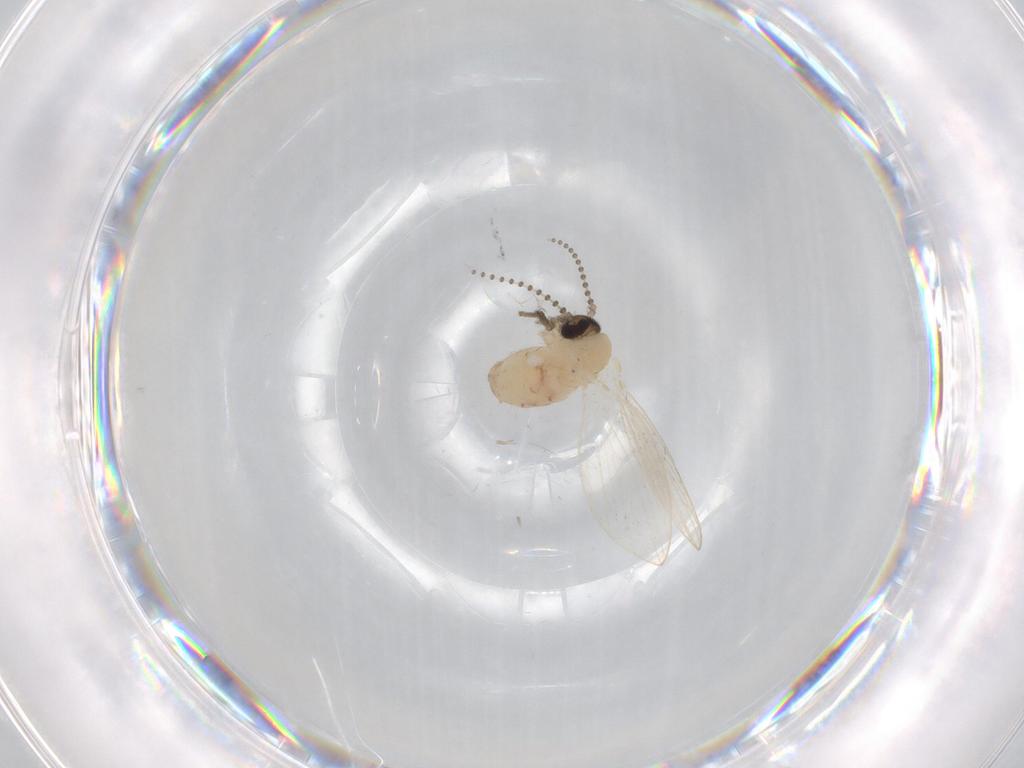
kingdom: Animalia
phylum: Arthropoda
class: Insecta
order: Diptera
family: Psychodidae
